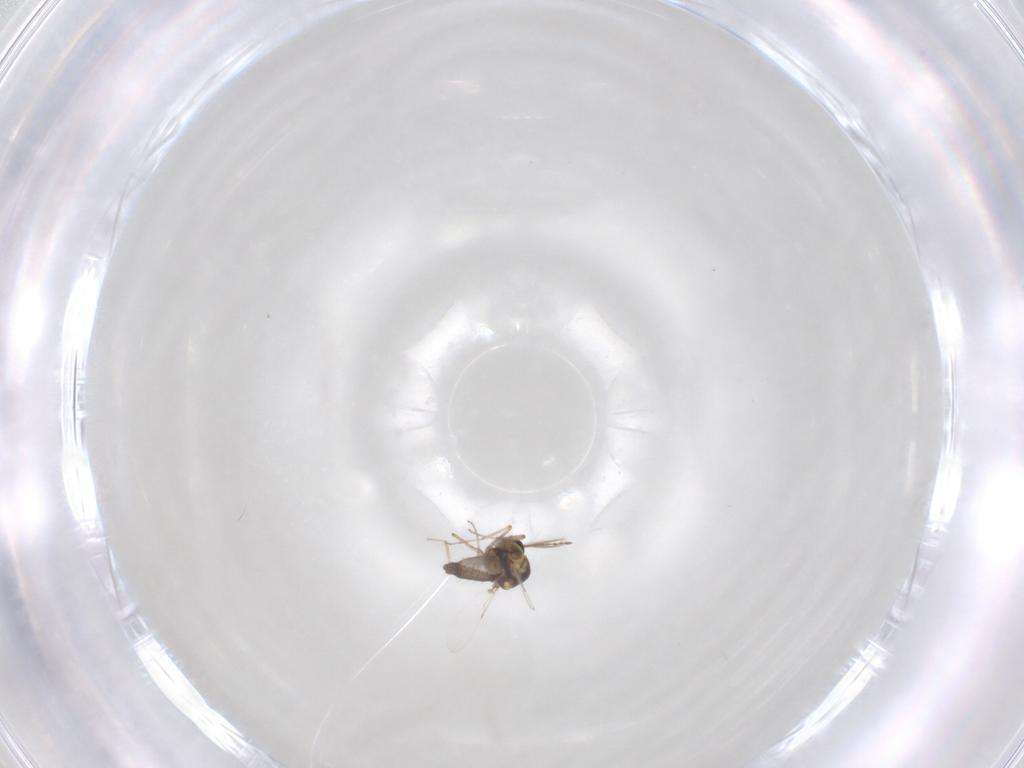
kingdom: Animalia
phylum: Arthropoda
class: Insecta
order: Diptera
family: Ceratopogonidae
